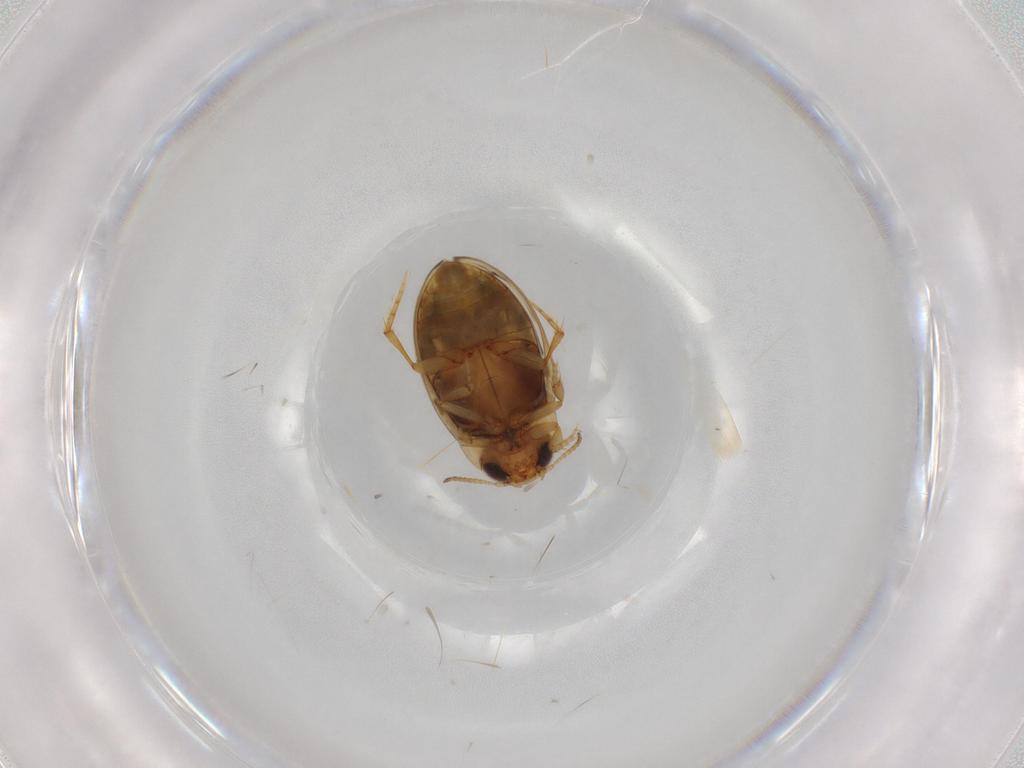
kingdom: Animalia
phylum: Arthropoda
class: Insecta
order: Coleoptera
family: Dytiscidae
